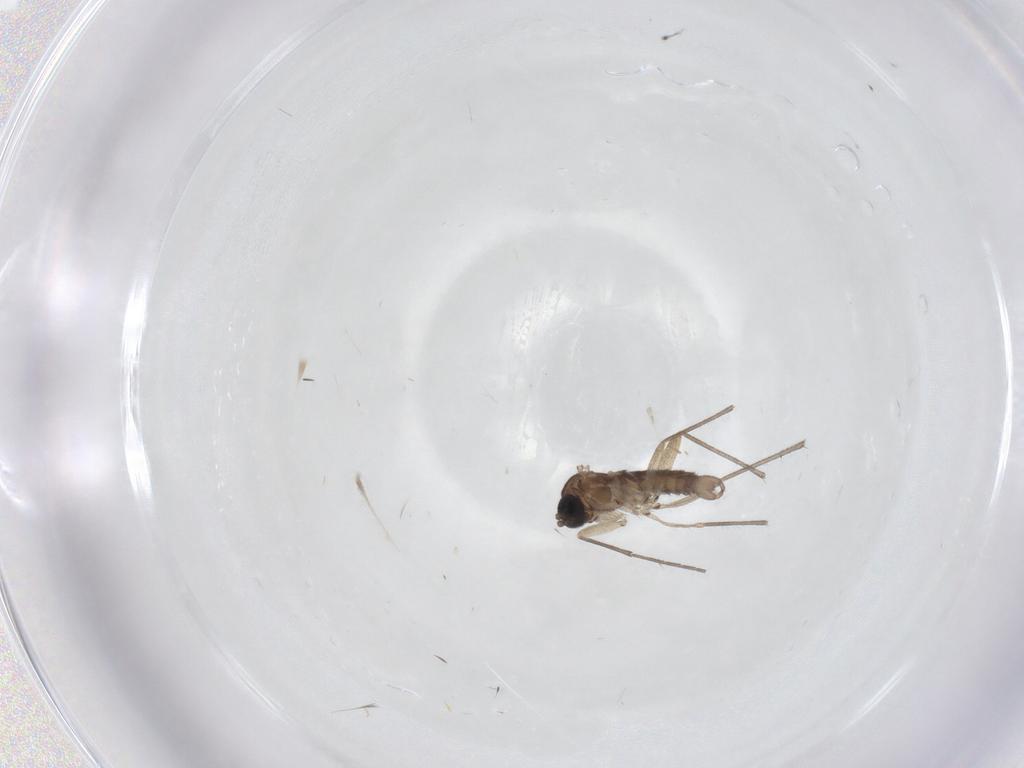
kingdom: Animalia
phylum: Arthropoda
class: Insecta
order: Diptera
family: Sciaridae
